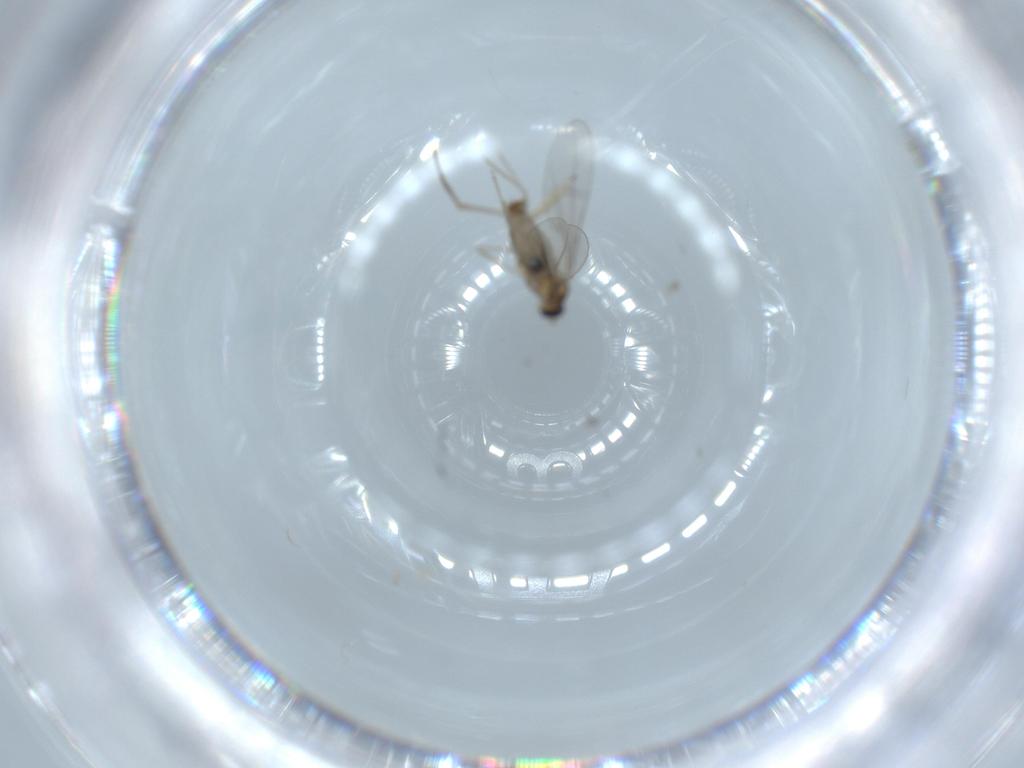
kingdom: Animalia
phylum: Arthropoda
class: Insecta
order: Diptera
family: Sciaridae
